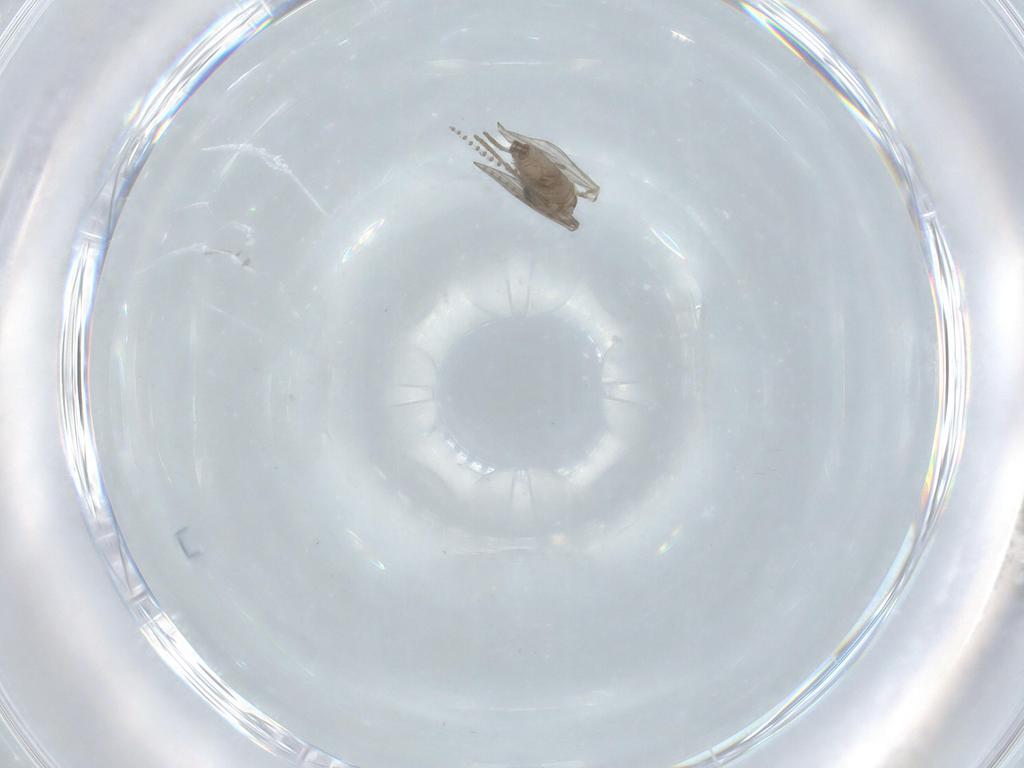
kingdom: Animalia
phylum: Arthropoda
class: Insecta
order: Diptera
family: Psychodidae
